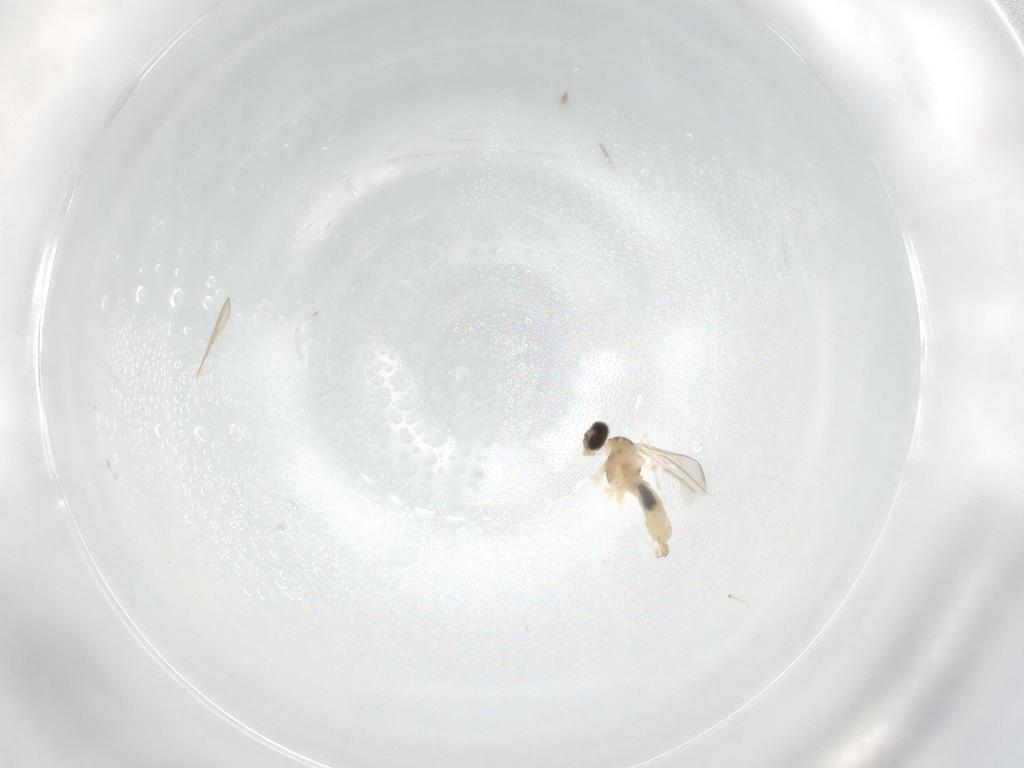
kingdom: Animalia
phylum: Arthropoda
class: Insecta
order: Diptera
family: Cecidomyiidae
